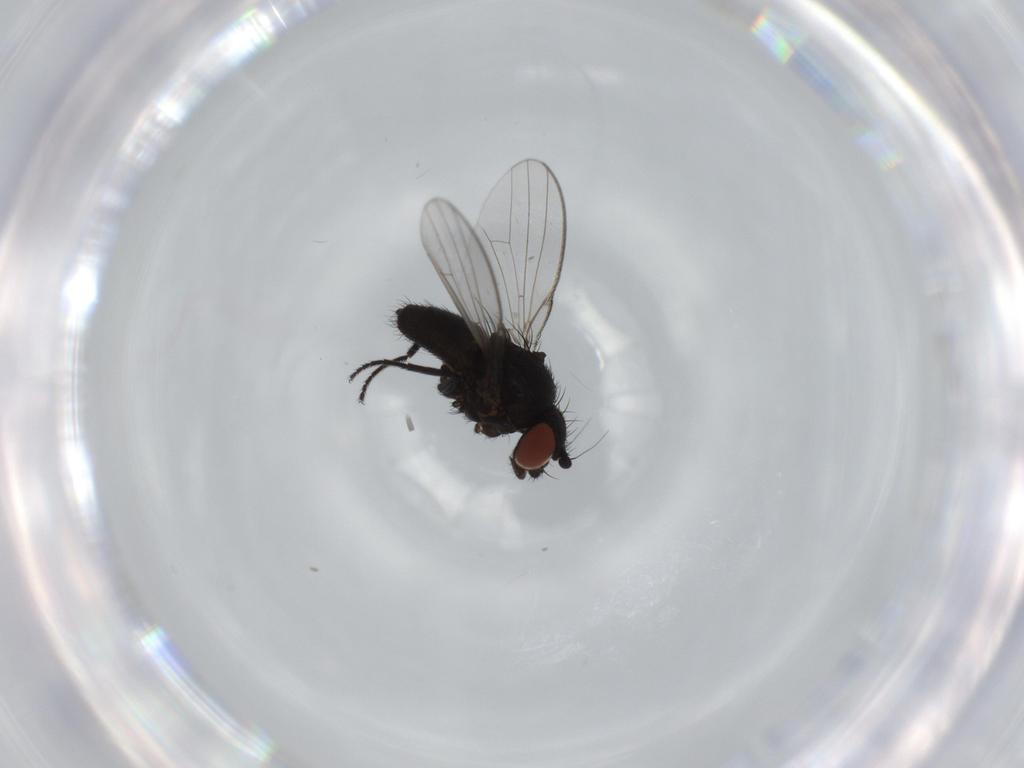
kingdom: Animalia
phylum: Arthropoda
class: Insecta
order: Diptera
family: Milichiidae
